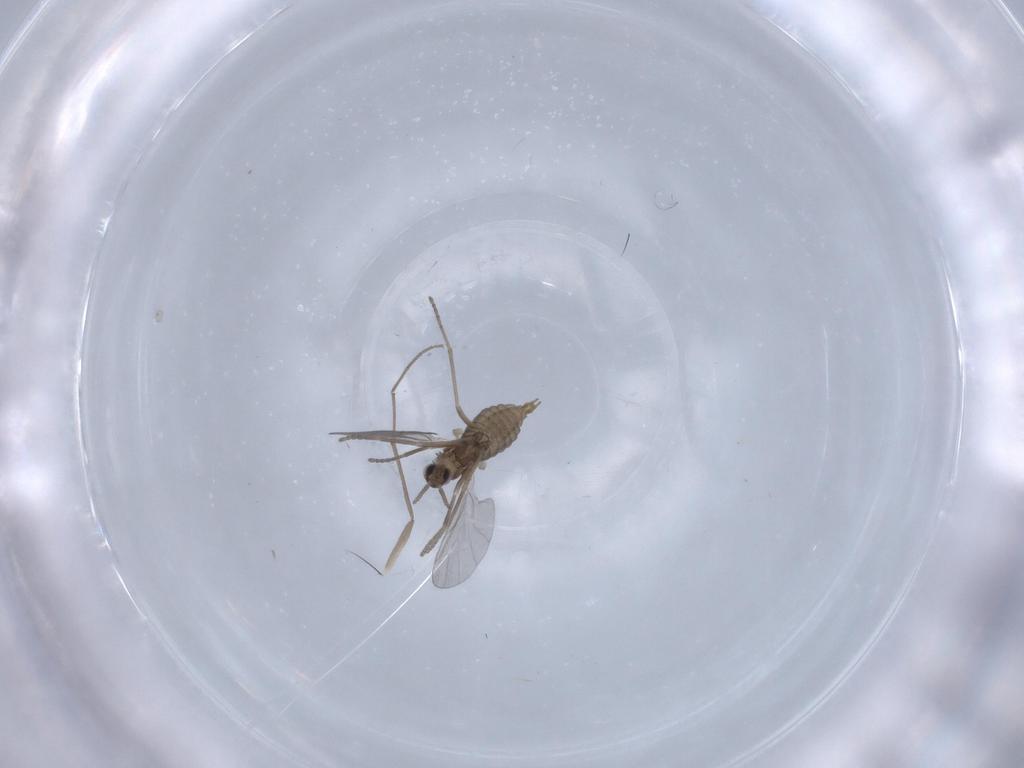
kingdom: Animalia
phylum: Arthropoda
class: Insecta
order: Diptera
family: Cecidomyiidae
